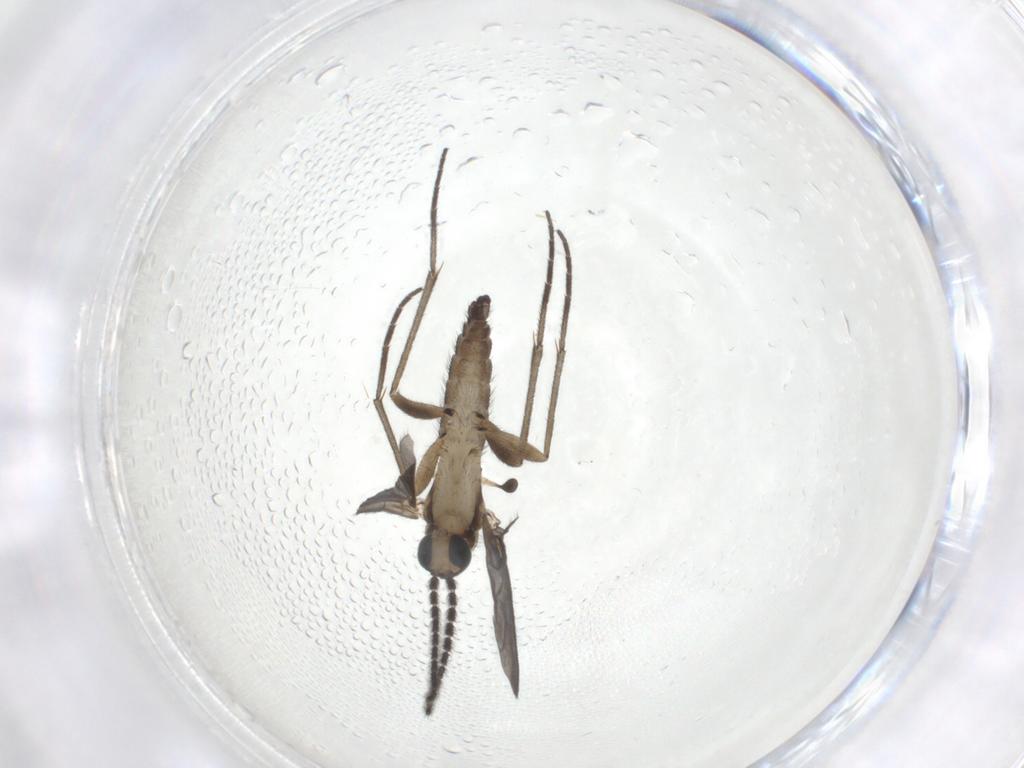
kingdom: Animalia
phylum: Arthropoda
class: Insecta
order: Diptera
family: Sciaridae
